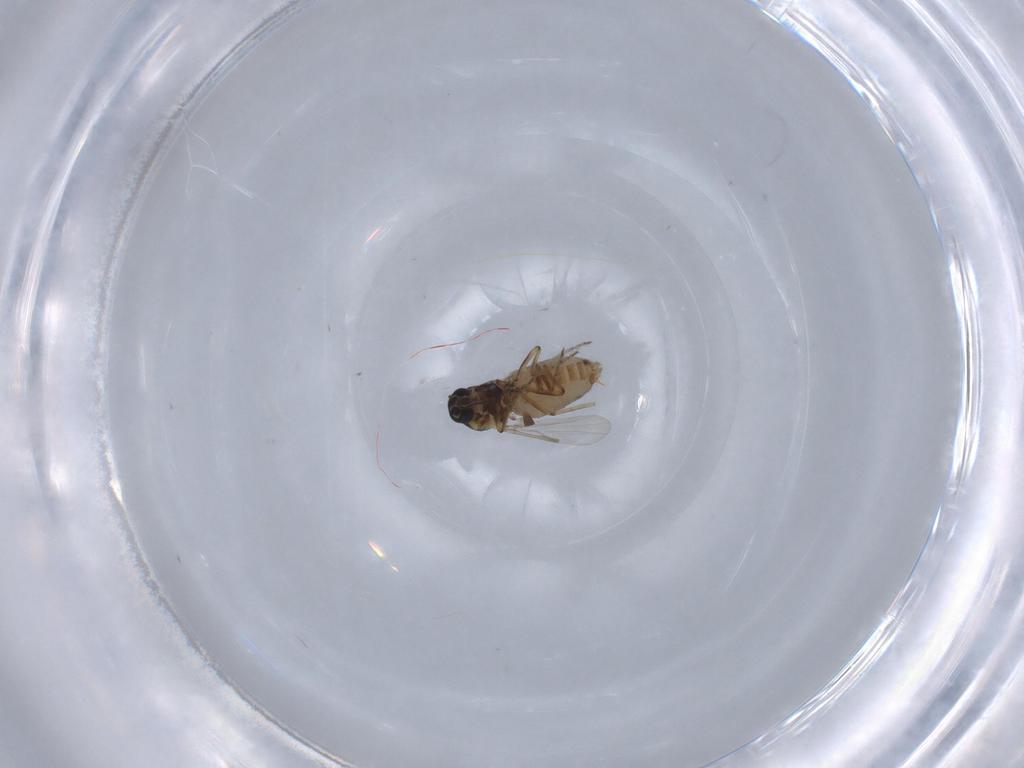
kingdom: Animalia
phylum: Arthropoda
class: Insecta
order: Diptera
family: Ceratopogonidae
